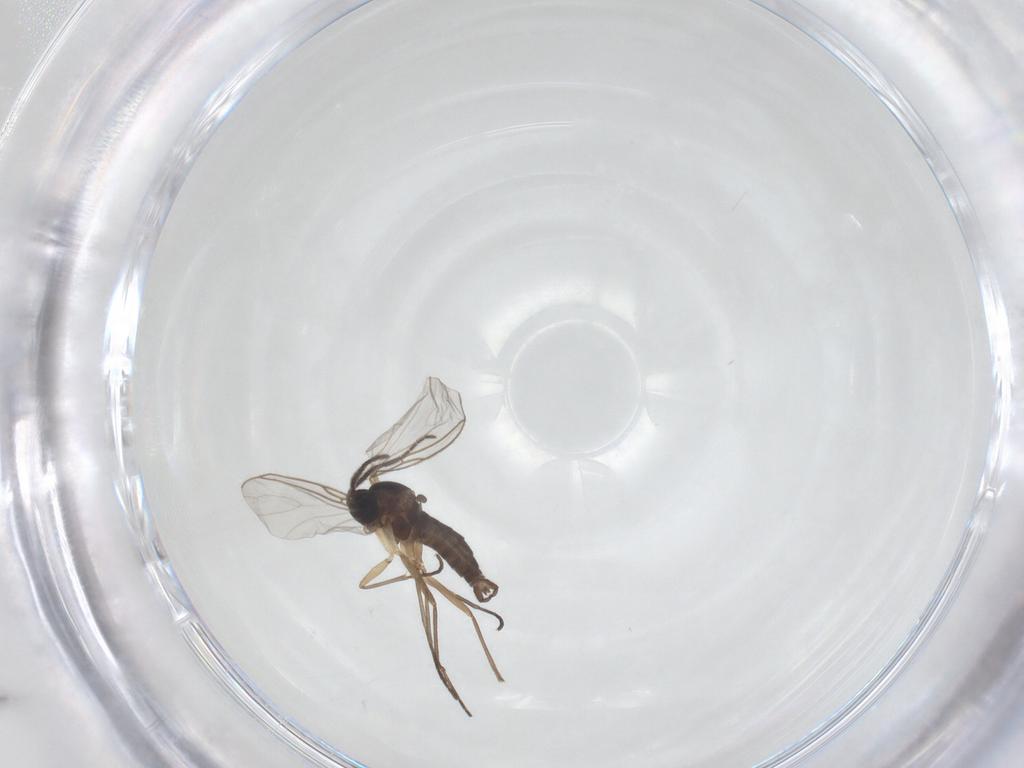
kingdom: Animalia
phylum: Arthropoda
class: Insecta
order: Diptera
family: Sciaridae
